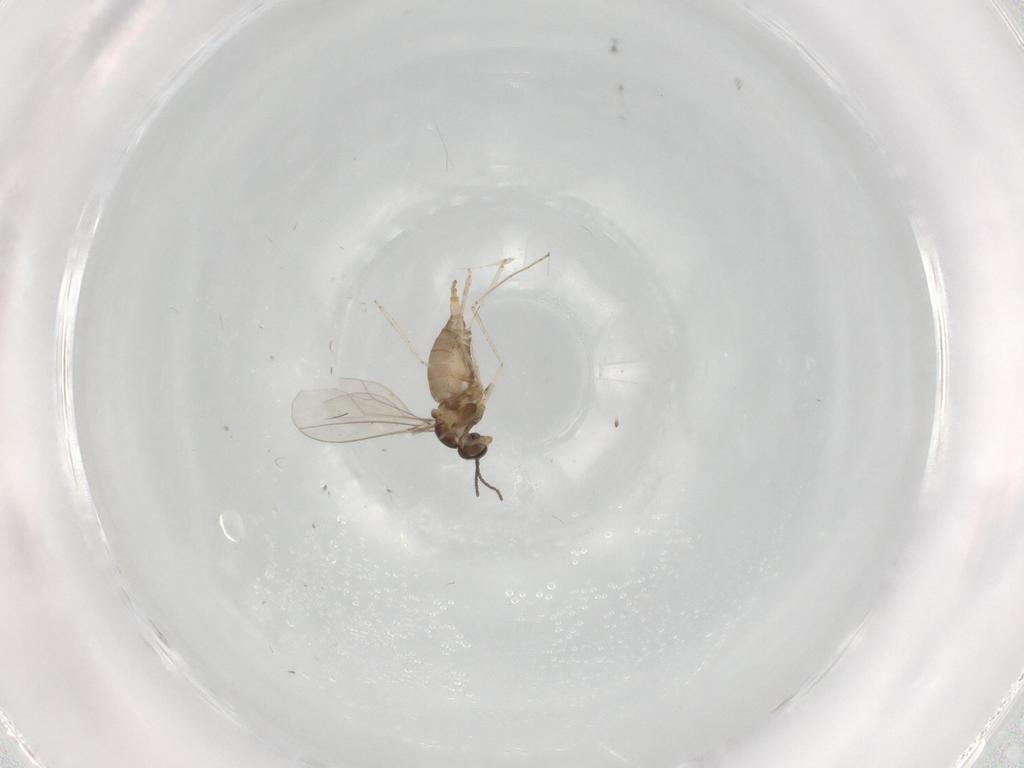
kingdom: Animalia
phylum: Arthropoda
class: Insecta
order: Diptera
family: Cecidomyiidae
